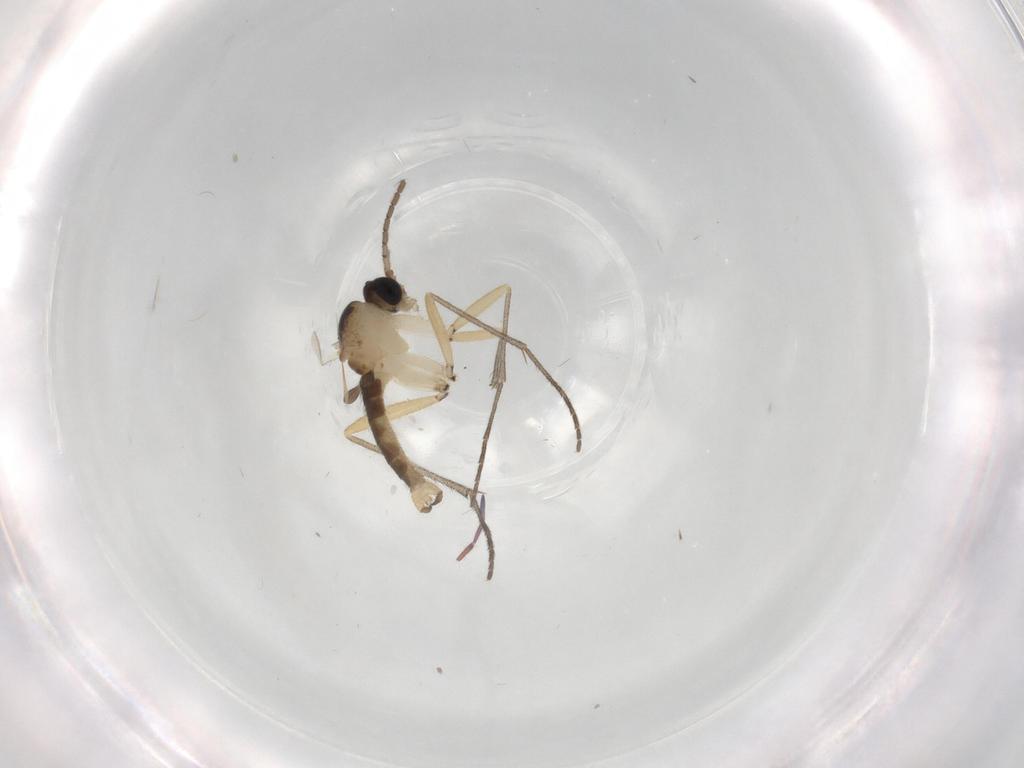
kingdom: Animalia
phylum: Arthropoda
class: Insecta
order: Diptera
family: Sciaridae
